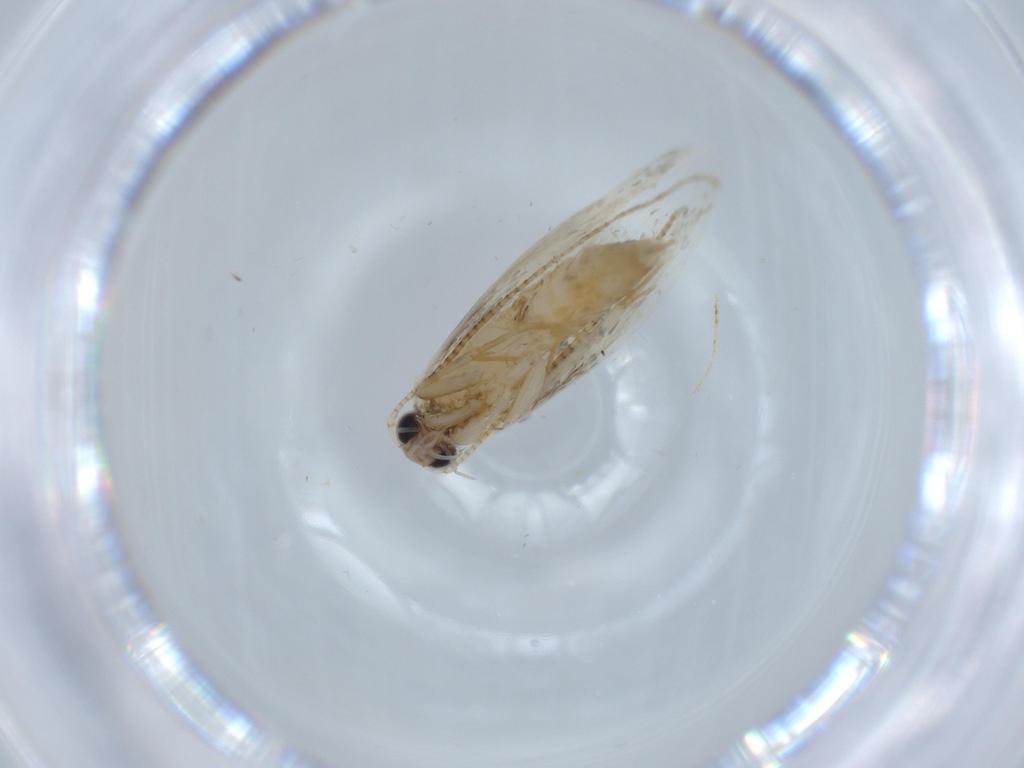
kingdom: Animalia
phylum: Arthropoda
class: Insecta
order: Lepidoptera
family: Tineidae
